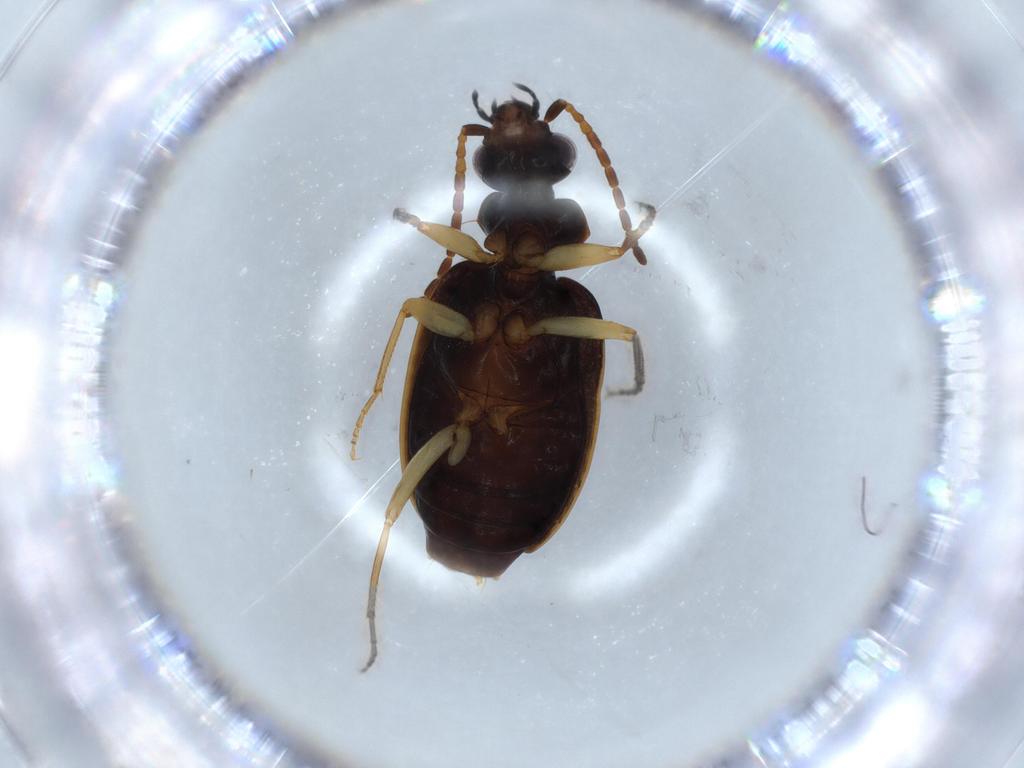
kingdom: Animalia
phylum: Arthropoda
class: Insecta
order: Coleoptera
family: Carabidae
